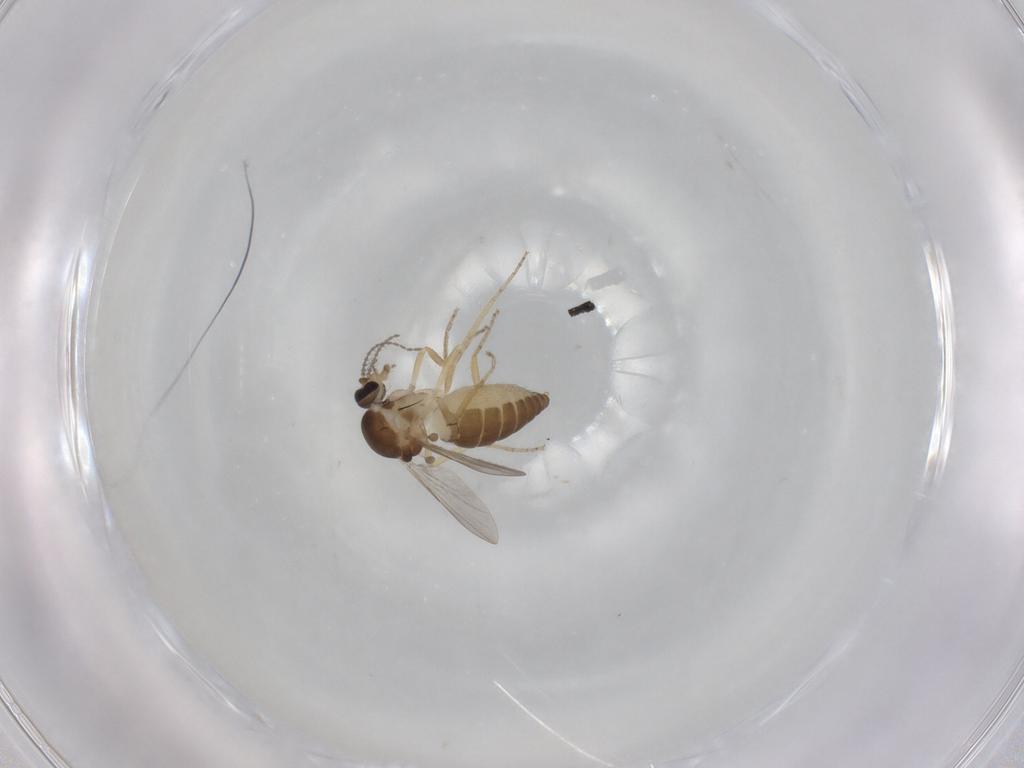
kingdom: Animalia
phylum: Arthropoda
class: Insecta
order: Diptera
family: Ceratopogonidae
